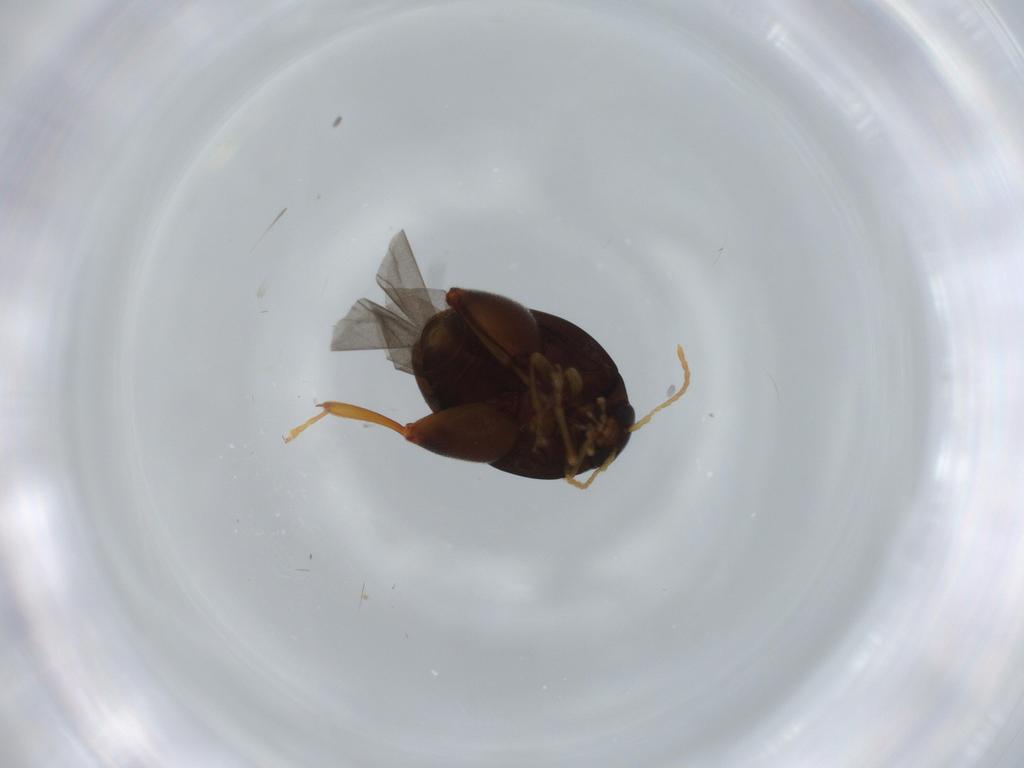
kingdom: Animalia
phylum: Arthropoda
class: Insecta
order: Coleoptera
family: Chrysomelidae
